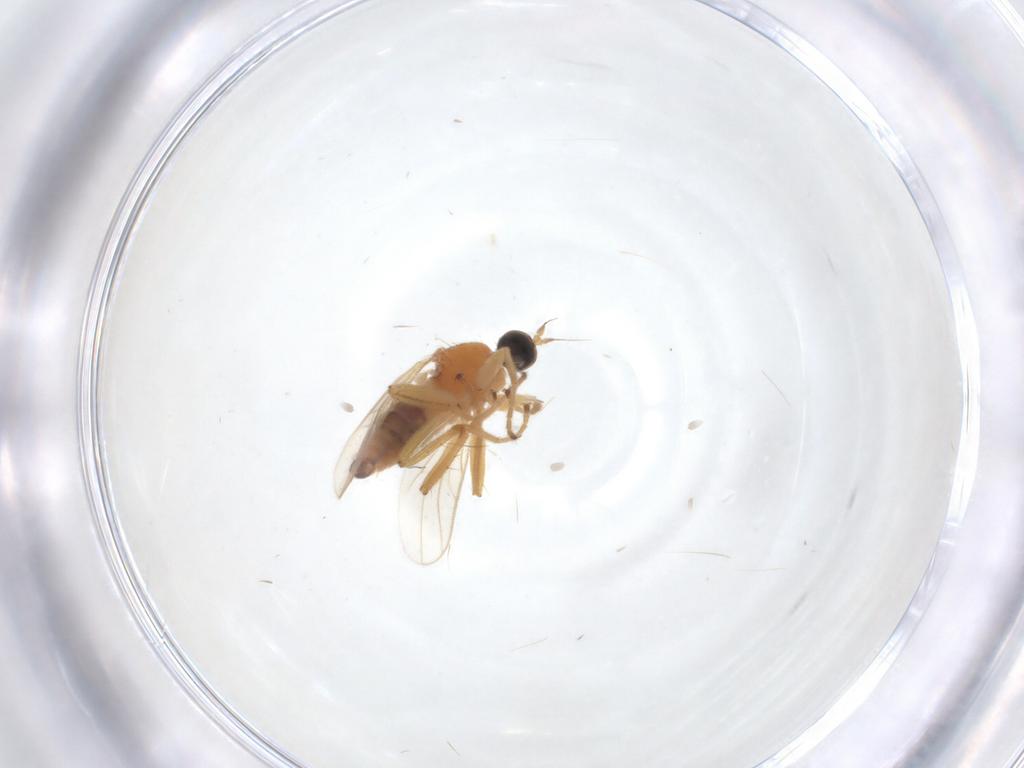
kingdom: Animalia
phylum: Arthropoda
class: Insecta
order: Diptera
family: Hybotidae
